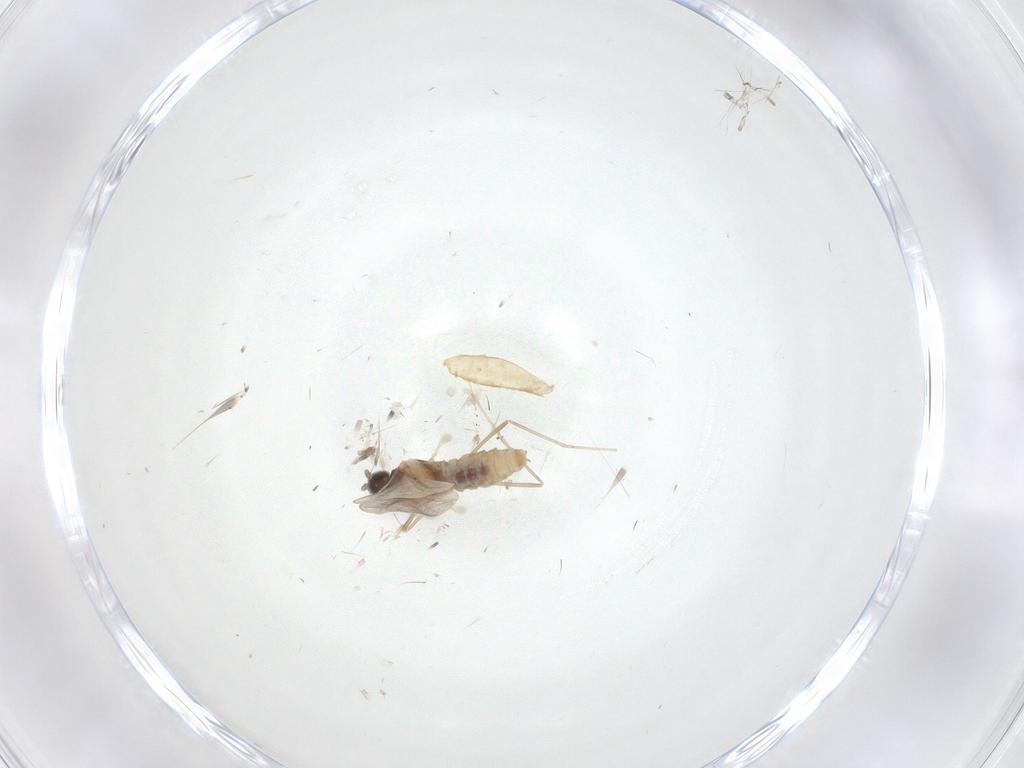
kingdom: Animalia
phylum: Arthropoda
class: Insecta
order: Diptera
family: Cecidomyiidae
